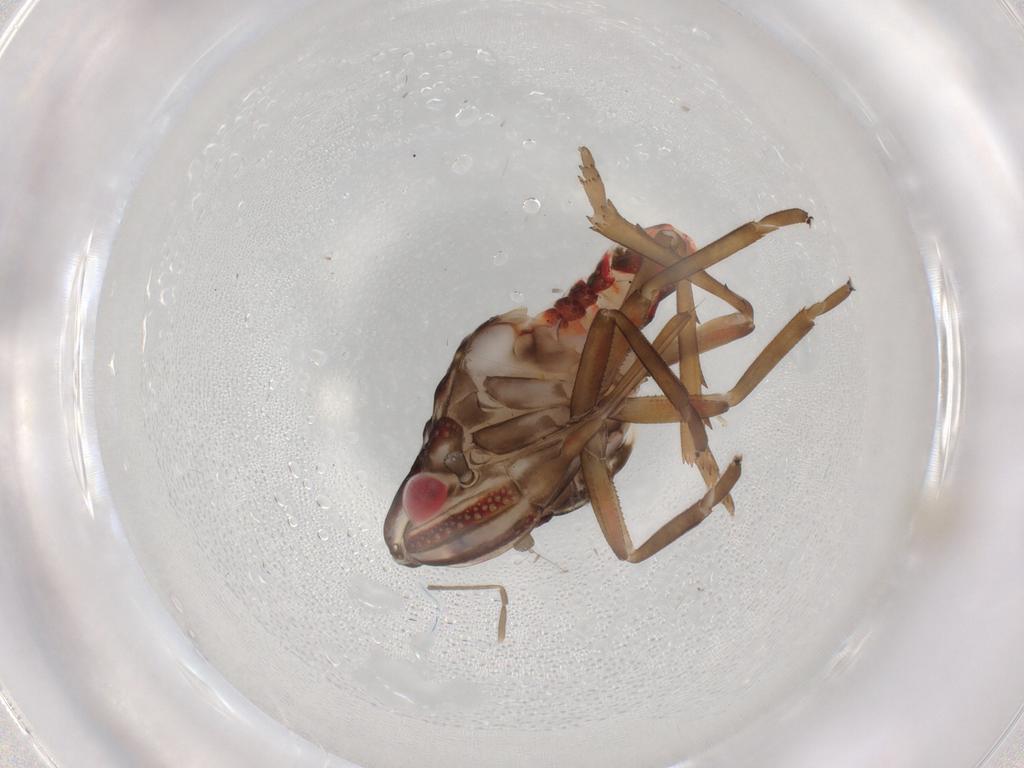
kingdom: Animalia
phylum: Arthropoda
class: Insecta
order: Hemiptera
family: Nogodinidae
